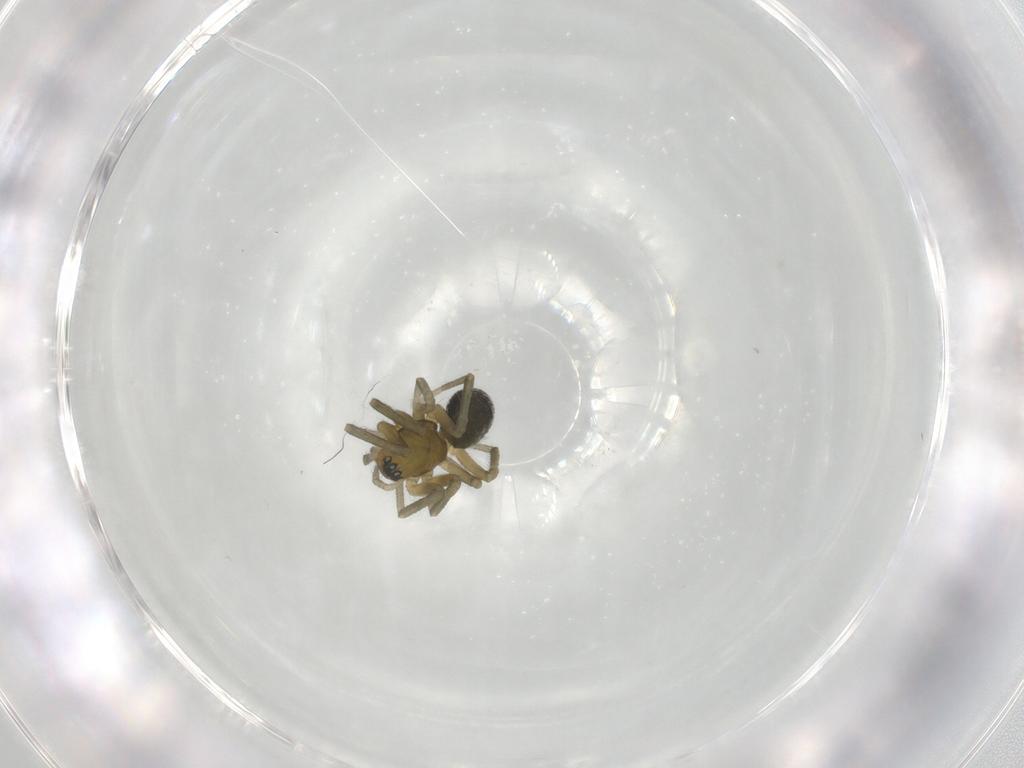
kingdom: Animalia
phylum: Arthropoda
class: Arachnida
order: Araneae
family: Linyphiidae
